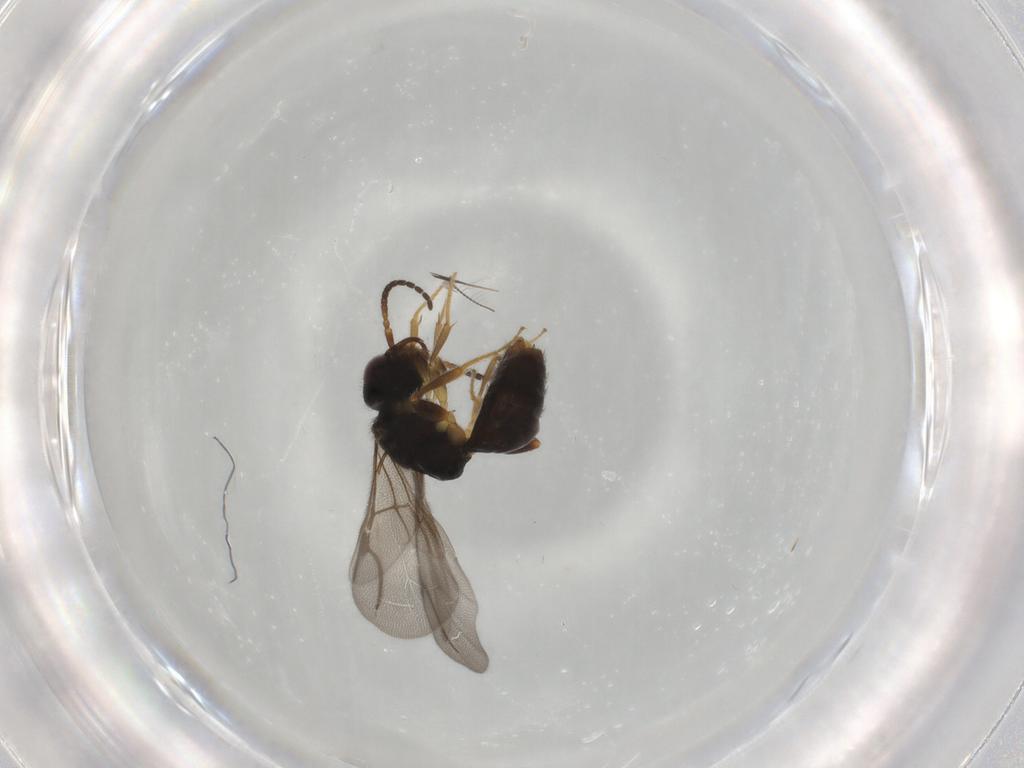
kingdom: Animalia
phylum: Arthropoda
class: Insecta
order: Hymenoptera
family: Bethylidae
